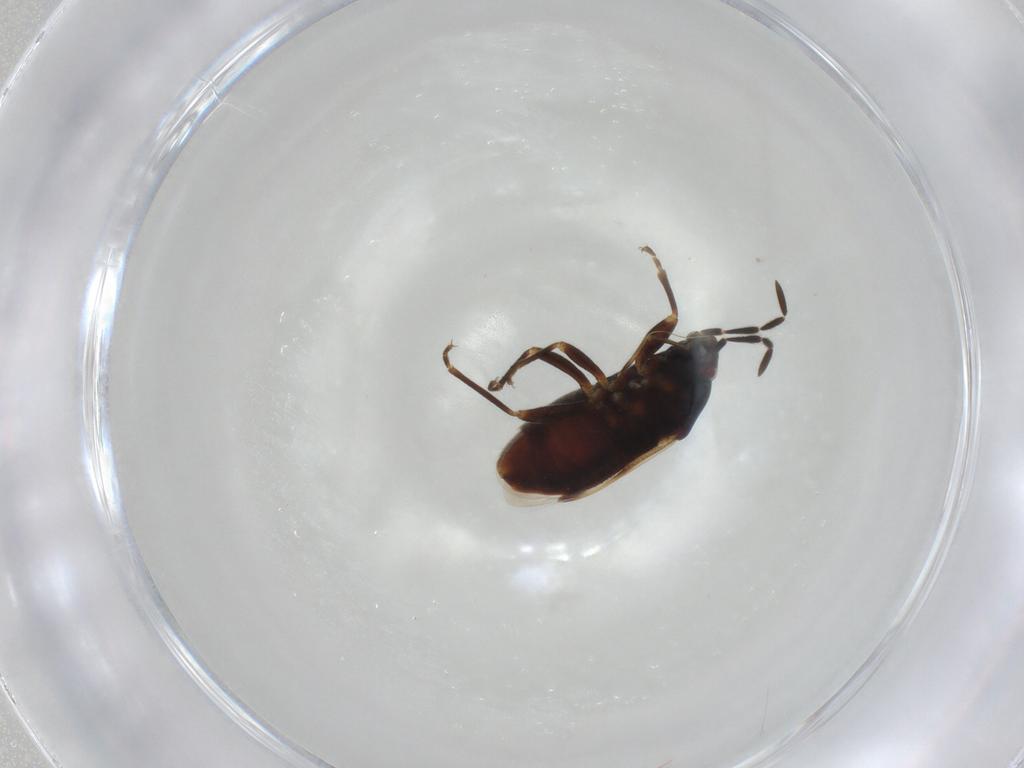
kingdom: Animalia
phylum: Arthropoda
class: Insecta
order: Hemiptera
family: Rhyparochromidae
